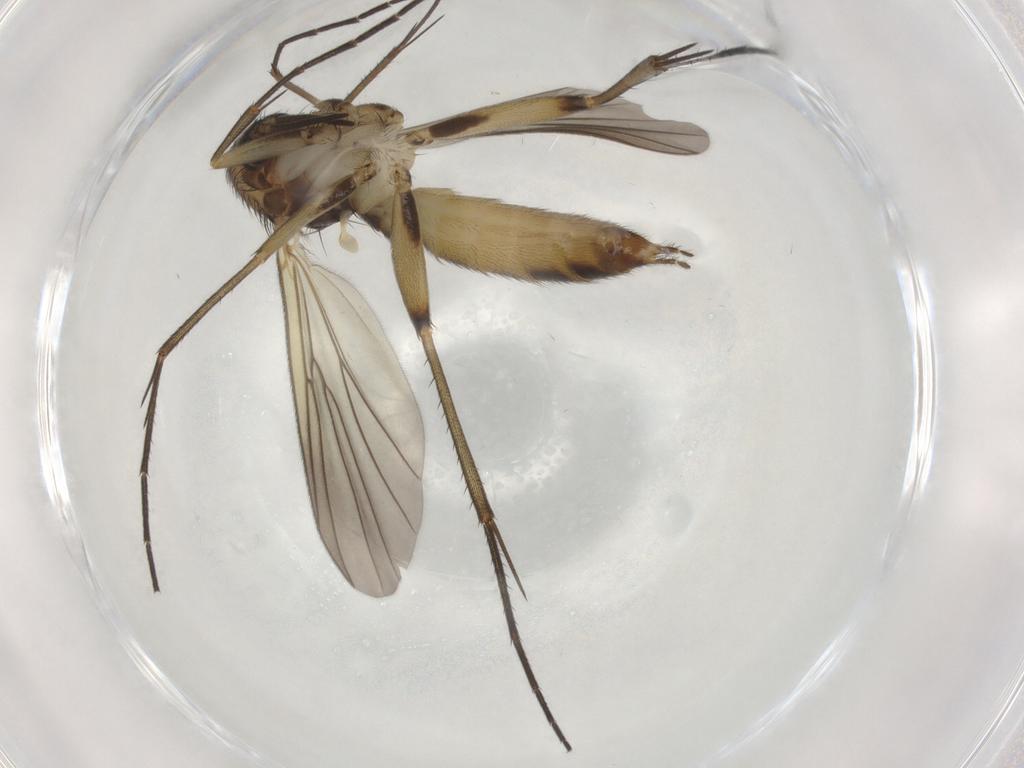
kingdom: Animalia
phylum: Arthropoda
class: Insecta
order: Diptera
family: Mycetophilidae
